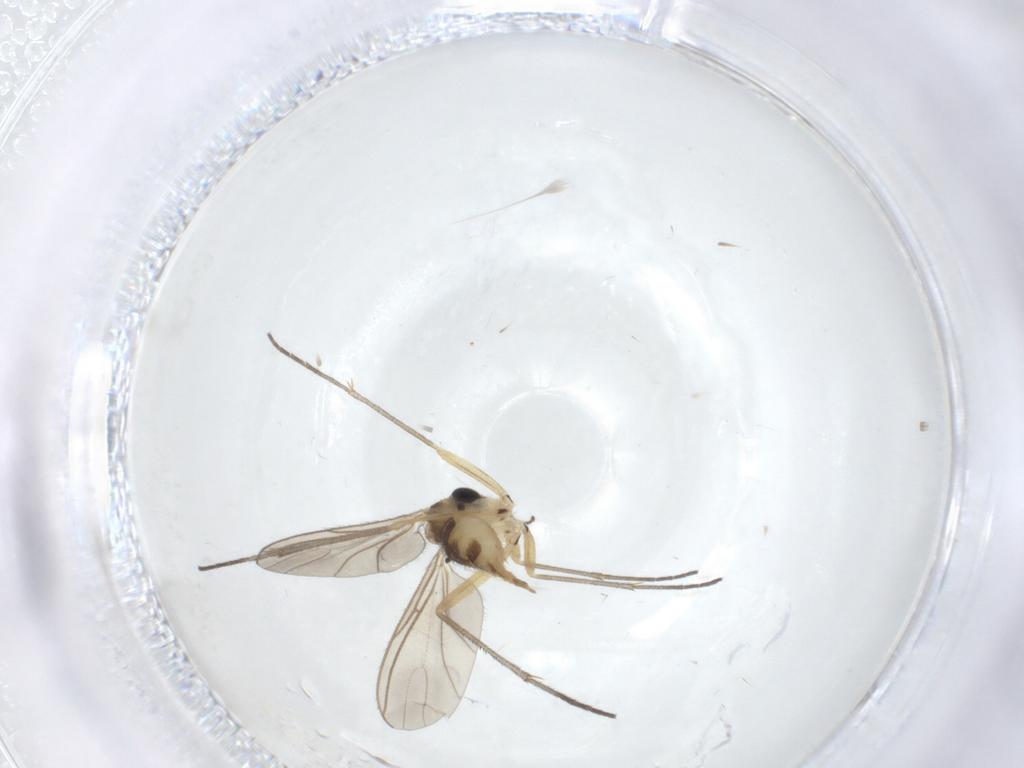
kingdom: Animalia
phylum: Arthropoda
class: Insecta
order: Diptera
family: Sciaridae
